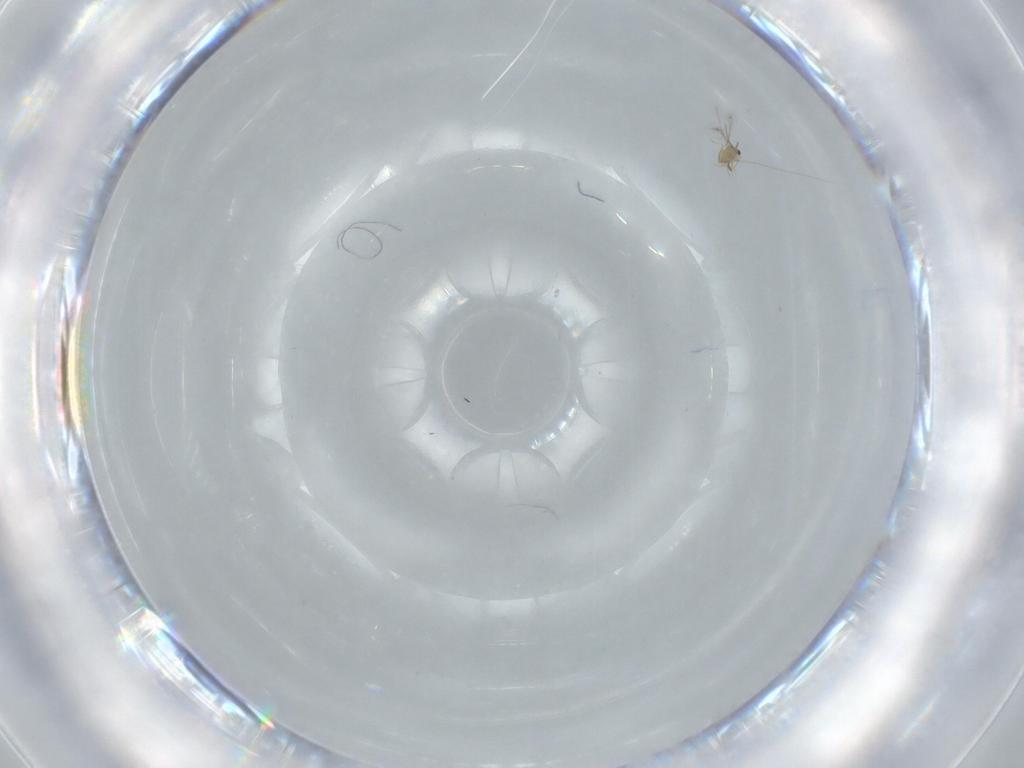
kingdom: Animalia
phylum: Arthropoda
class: Insecta
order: Hymenoptera
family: Mymaridae
